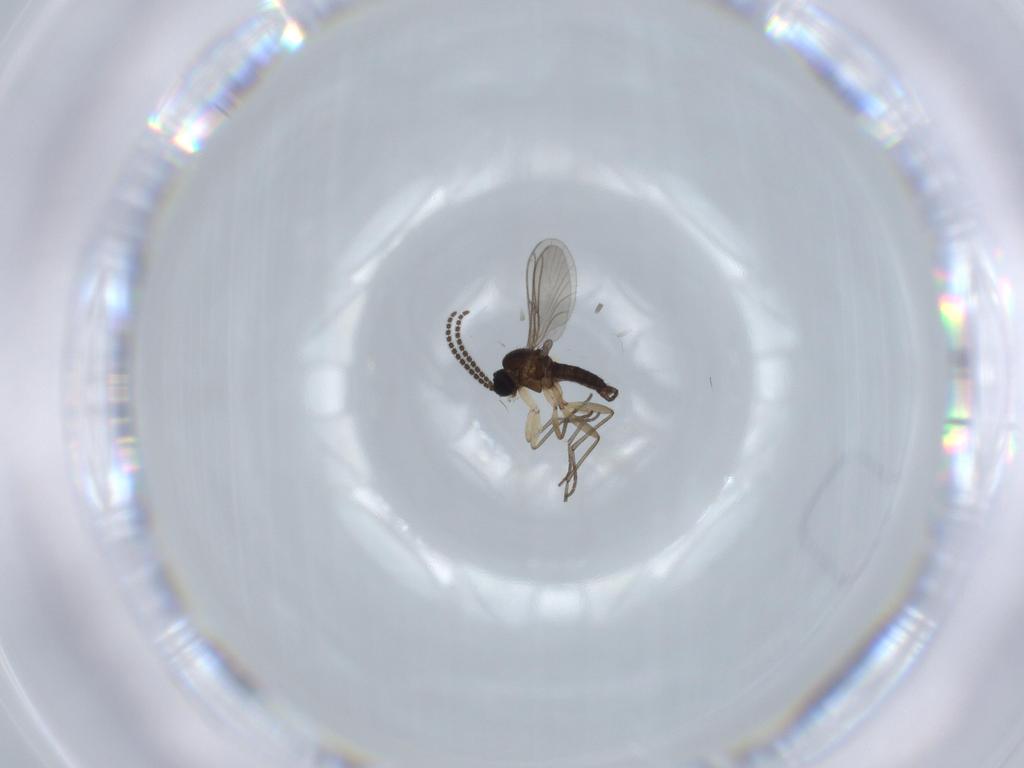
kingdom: Animalia
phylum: Arthropoda
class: Insecta
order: Diptera
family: Sciaridae
